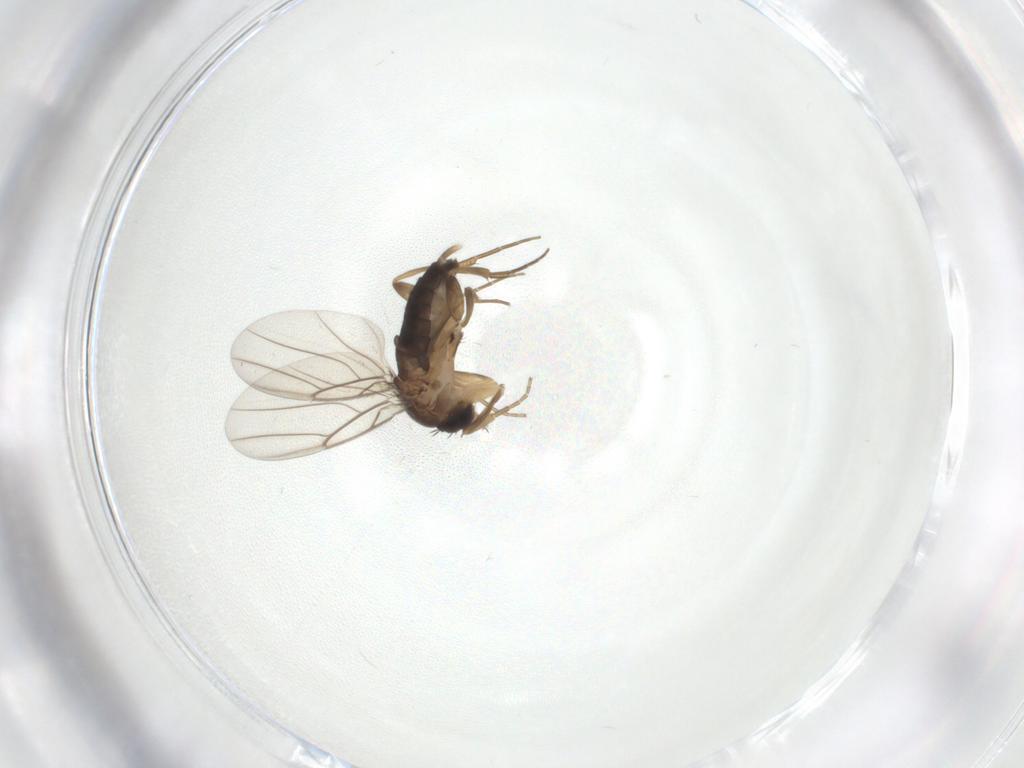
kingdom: Animalia
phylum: Arthropoda
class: Insecta
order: Diptera
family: Phoridae
